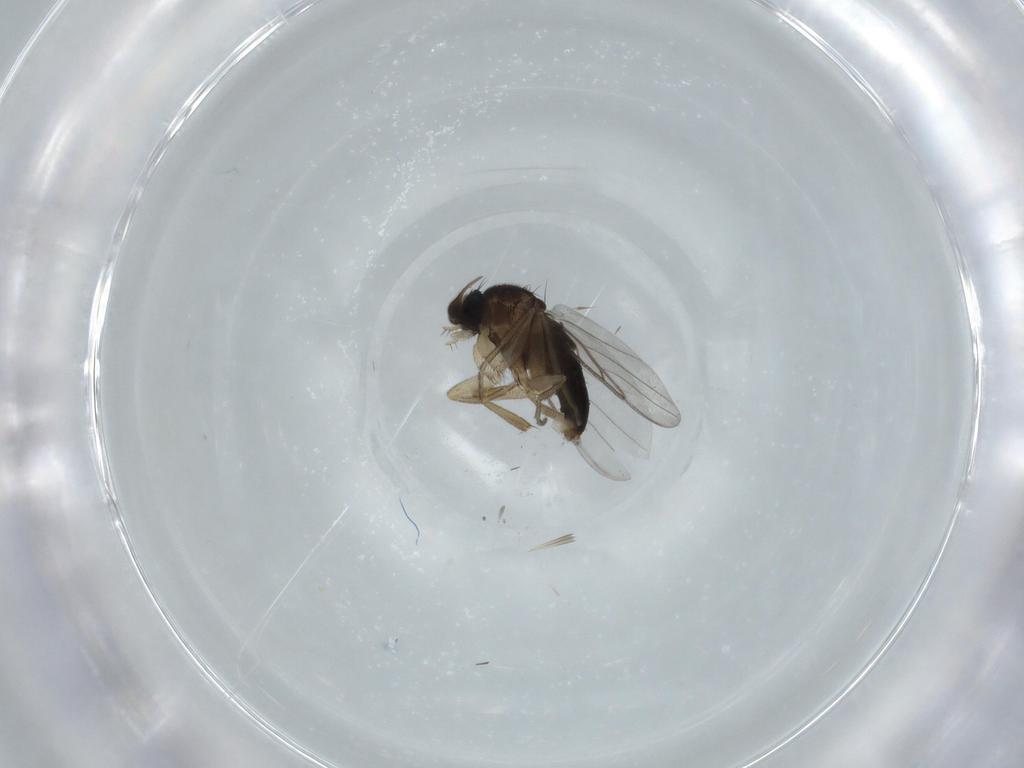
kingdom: Animalia
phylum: Arthropoda
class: Insecta
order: Diptera
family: Phoridae
